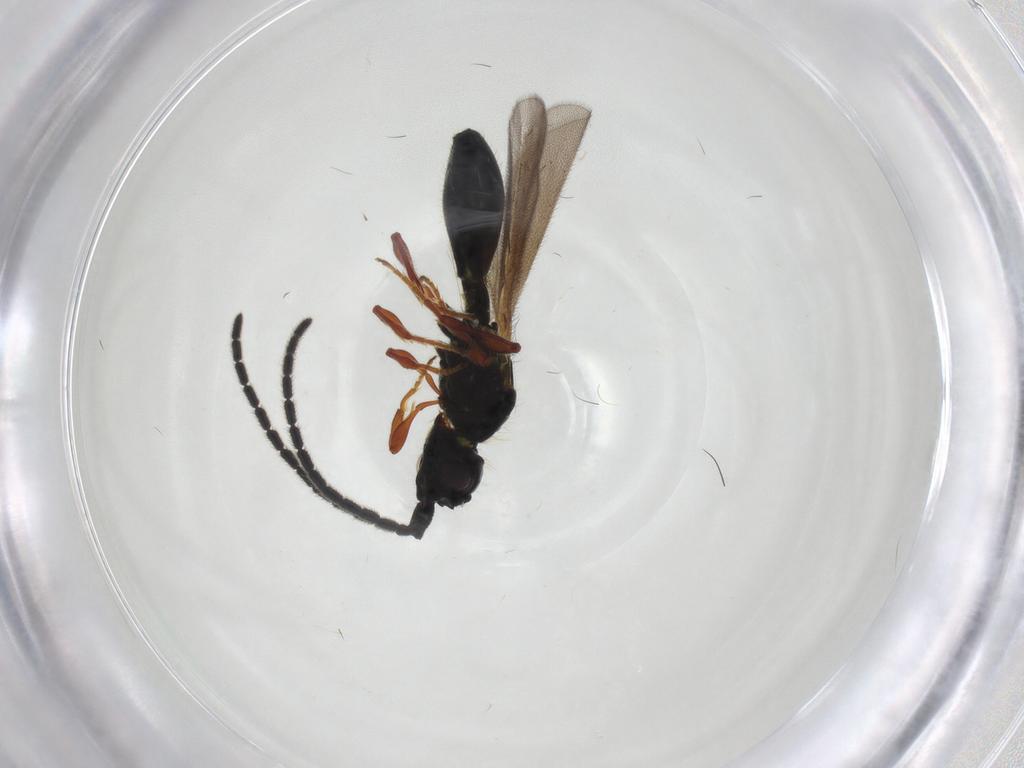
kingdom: Animalia
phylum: Arthropoda
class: Insecta
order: Hymenoptera
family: Diapriidae
